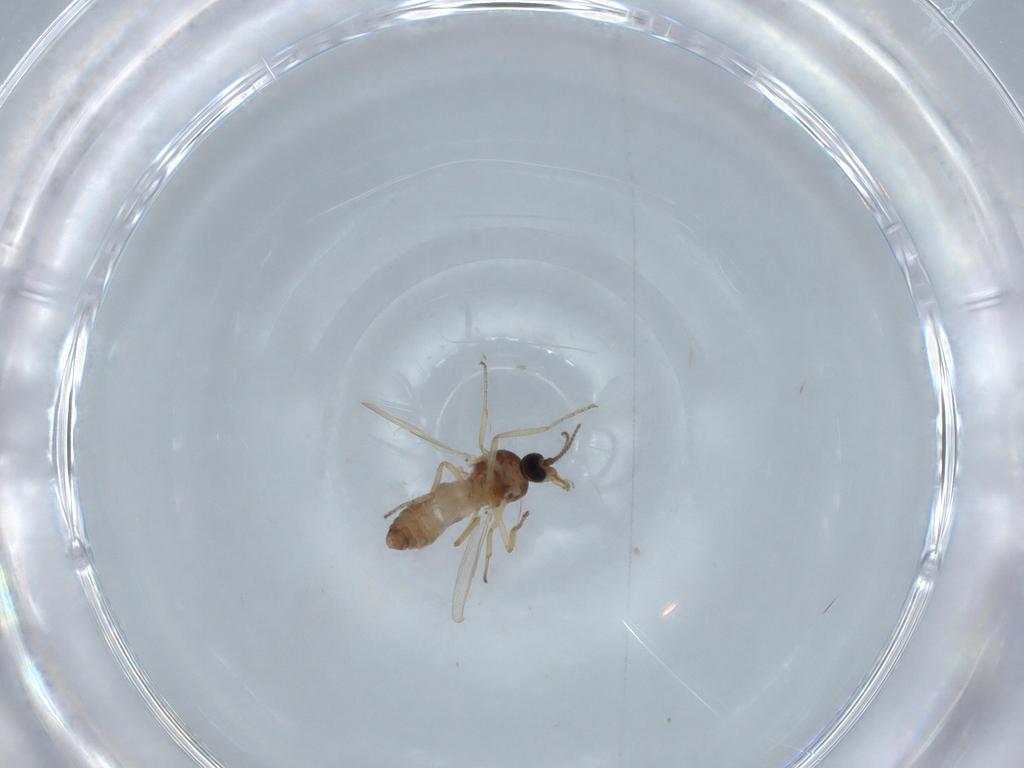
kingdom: Animalia
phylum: Arthropoda
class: Insecta
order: Diptera
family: Ceratopogonidae
